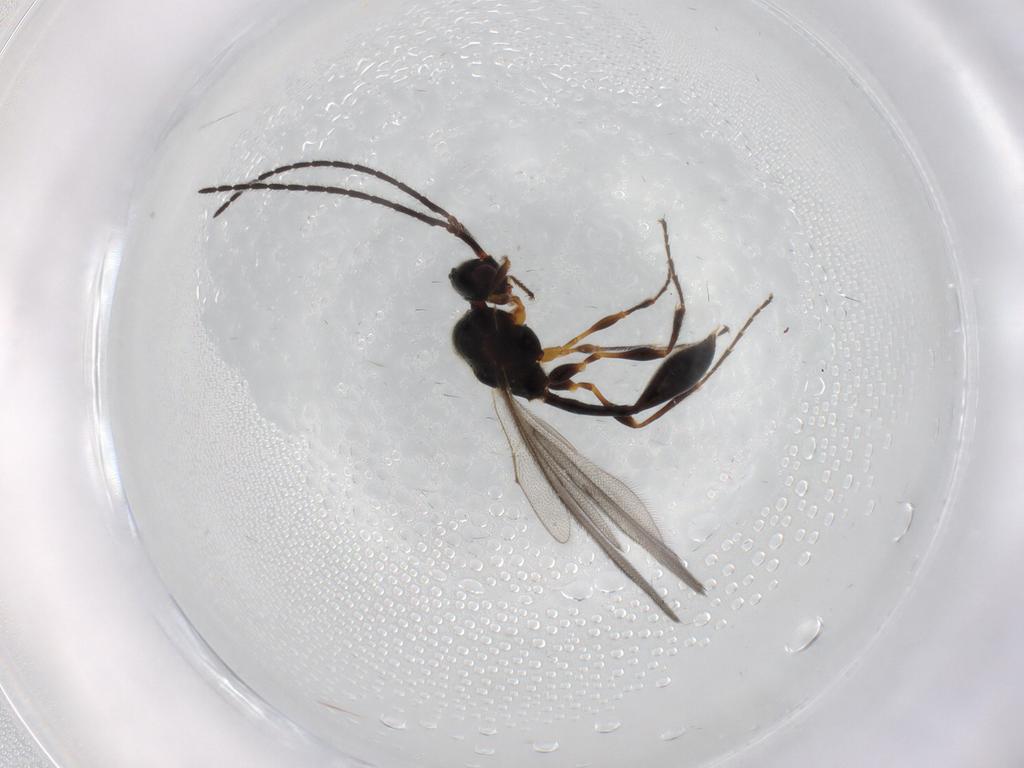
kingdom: Animalia
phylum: Arthropoda
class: Insecta
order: Hymenoptera
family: Diapriidae
